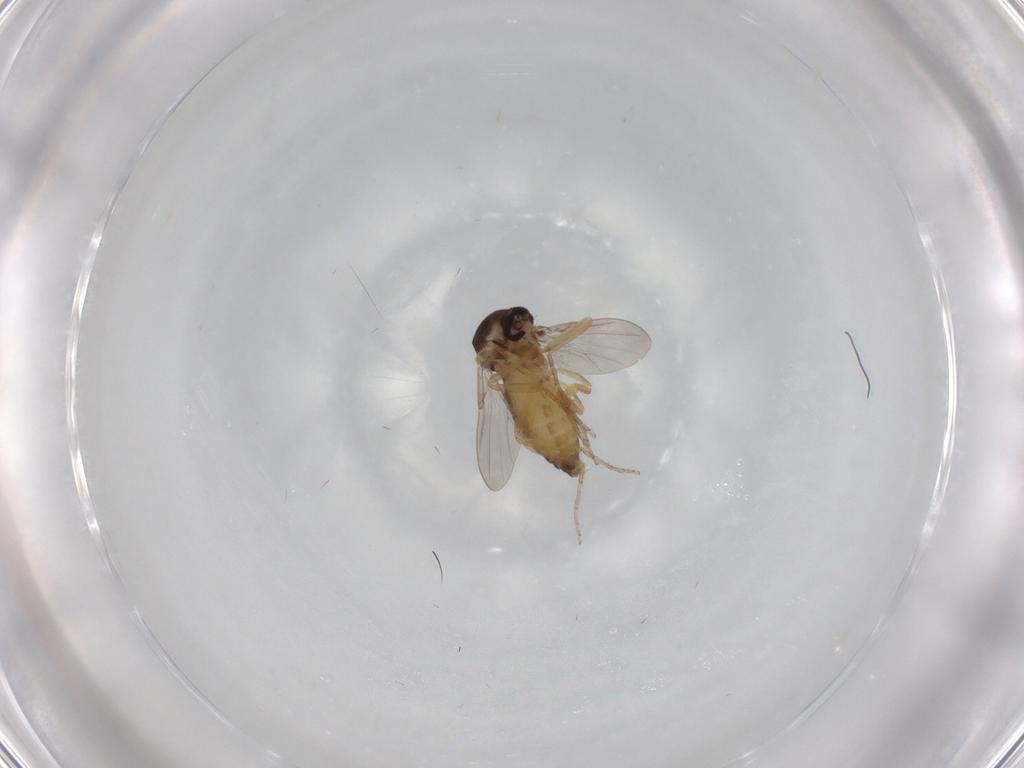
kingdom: Animalia
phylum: Arthropoda
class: Insecta
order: Diptera
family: Ceratopogonidae
